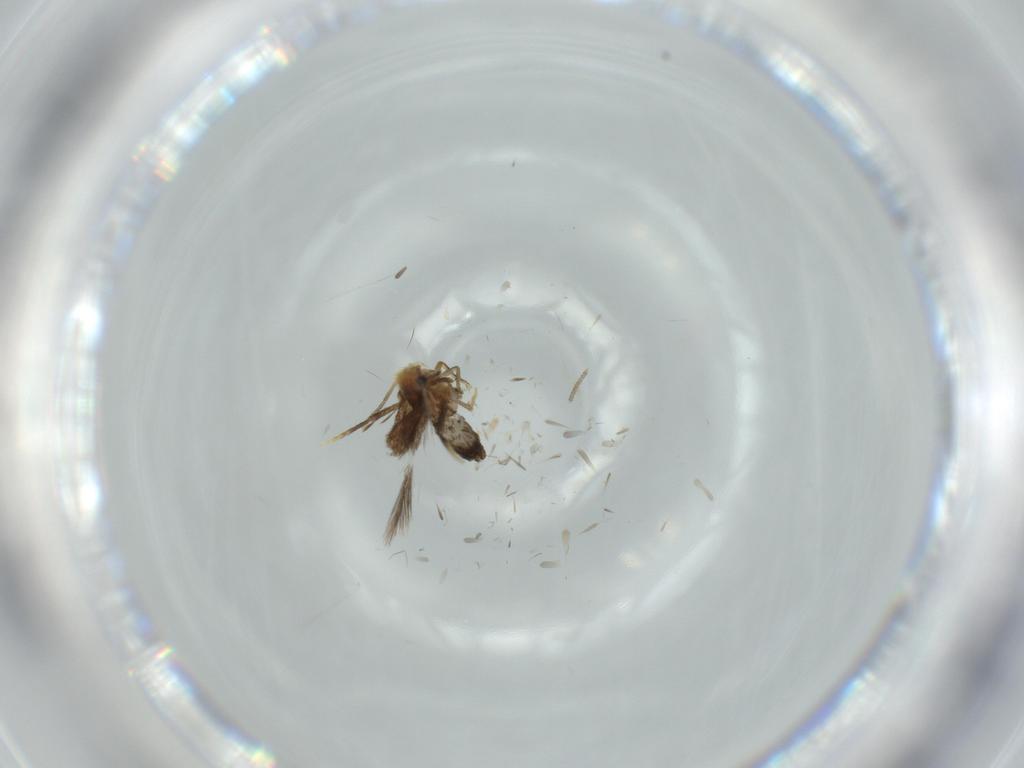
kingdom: Animalia
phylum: Arthropoda
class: Insecta
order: Lepidoptera
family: Nepticulidae
